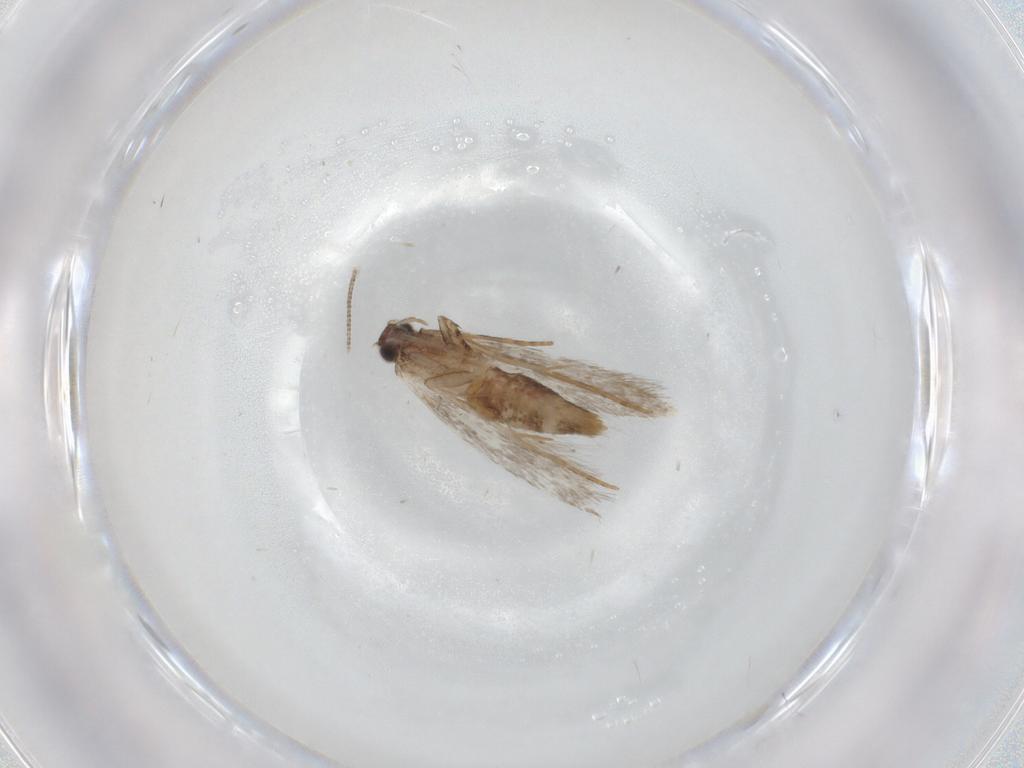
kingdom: Animalia
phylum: Arthropoda
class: Insecta
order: Lepidoptera
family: Tineidae
